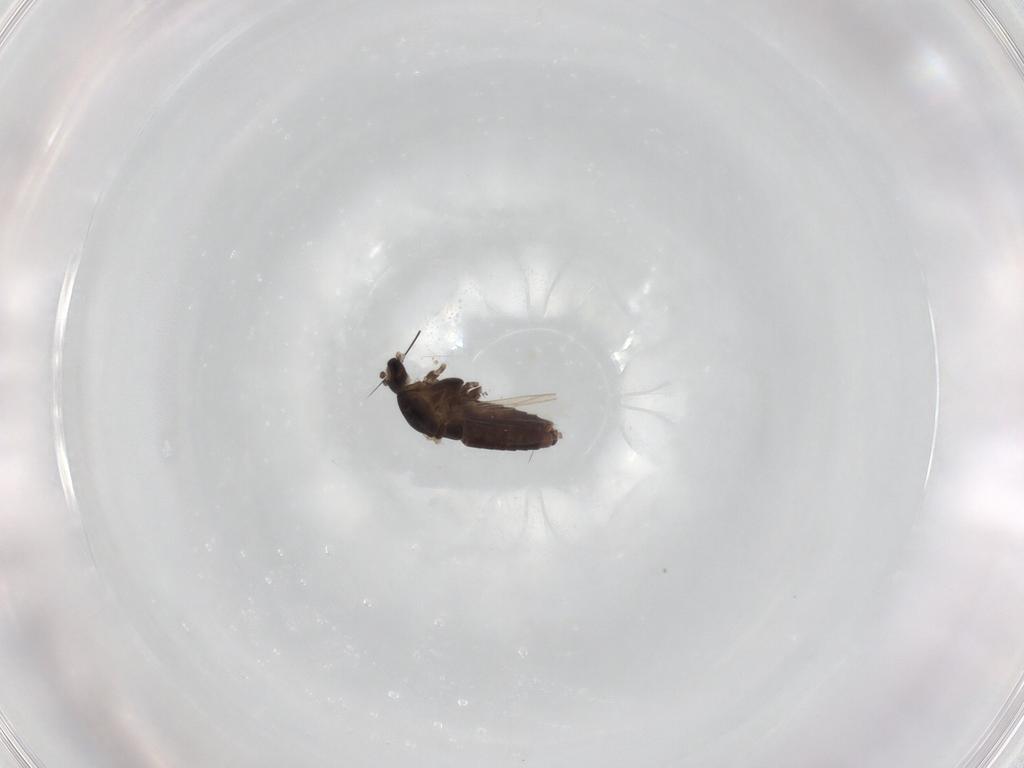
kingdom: Animalia
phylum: Arthropoda
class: Insecta
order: Diptera
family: Chironomidae
